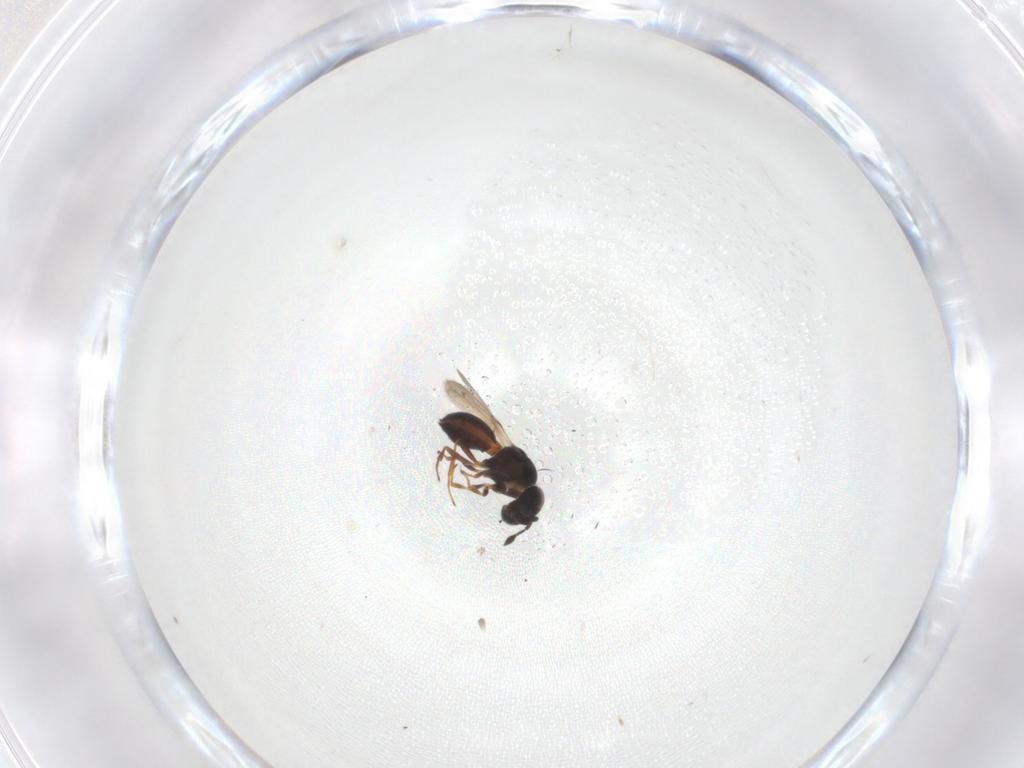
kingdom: Animalia
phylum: Arthropoda
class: Insecta
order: Hymenoptera
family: Scelionidae
